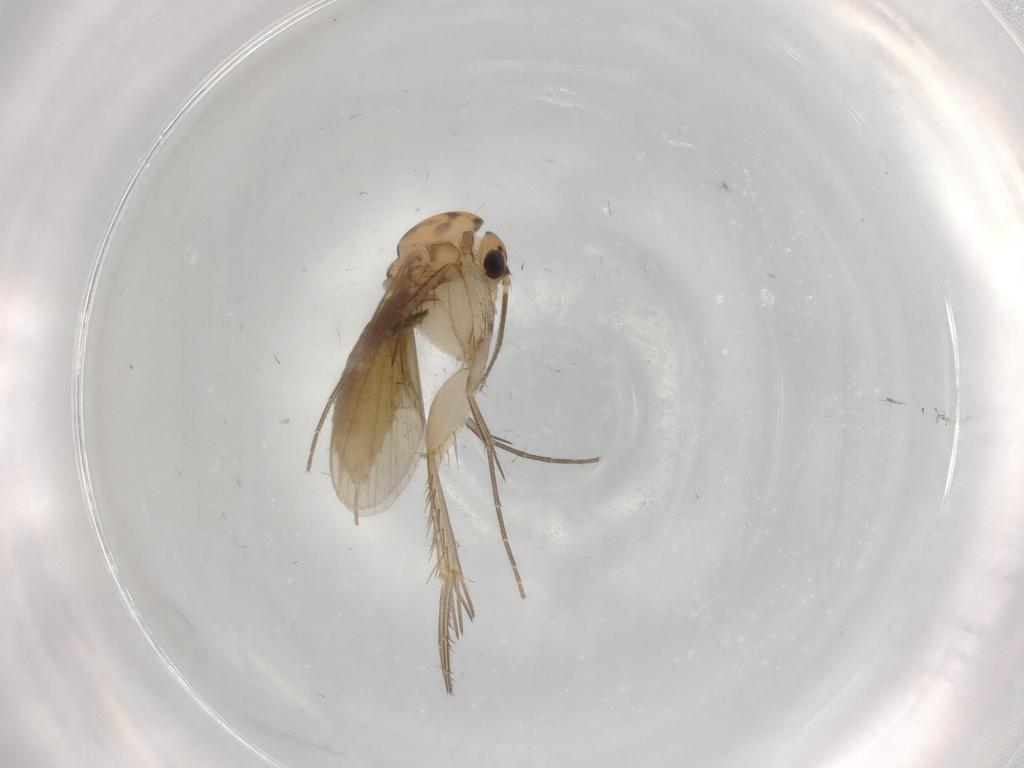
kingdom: Animalia
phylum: Arthropoda
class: Insecta
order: Diptera
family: Mycetophilidae
